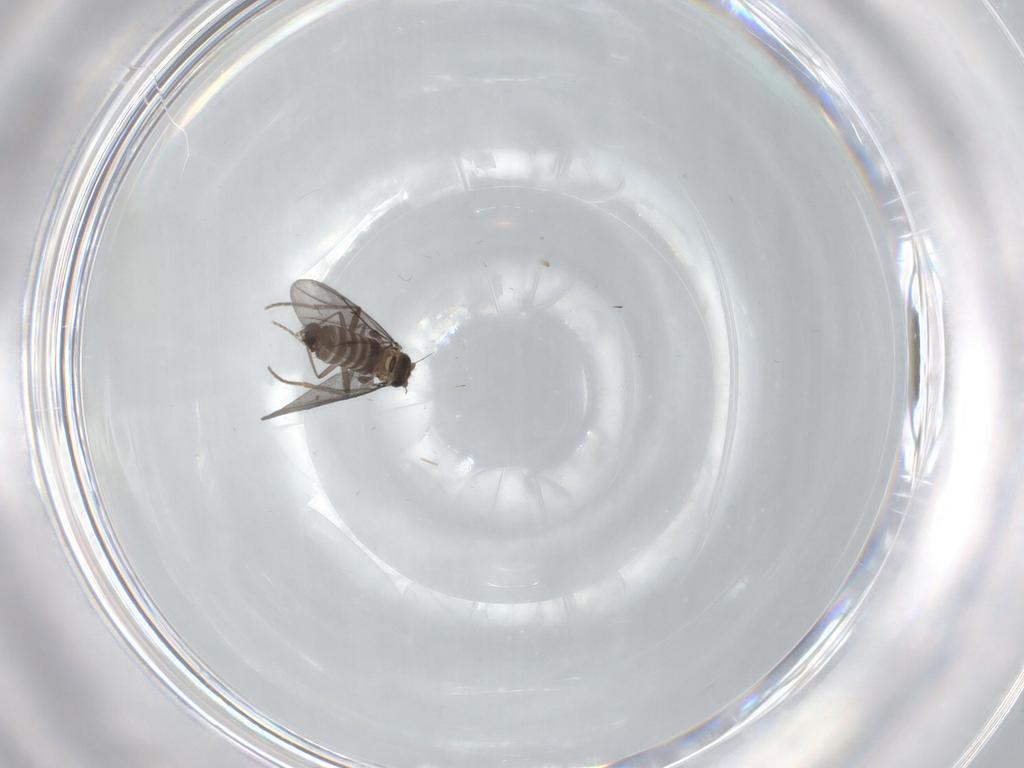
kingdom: Animalia
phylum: Arthropoda
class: Insecta
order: Diptera
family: Phoridae
